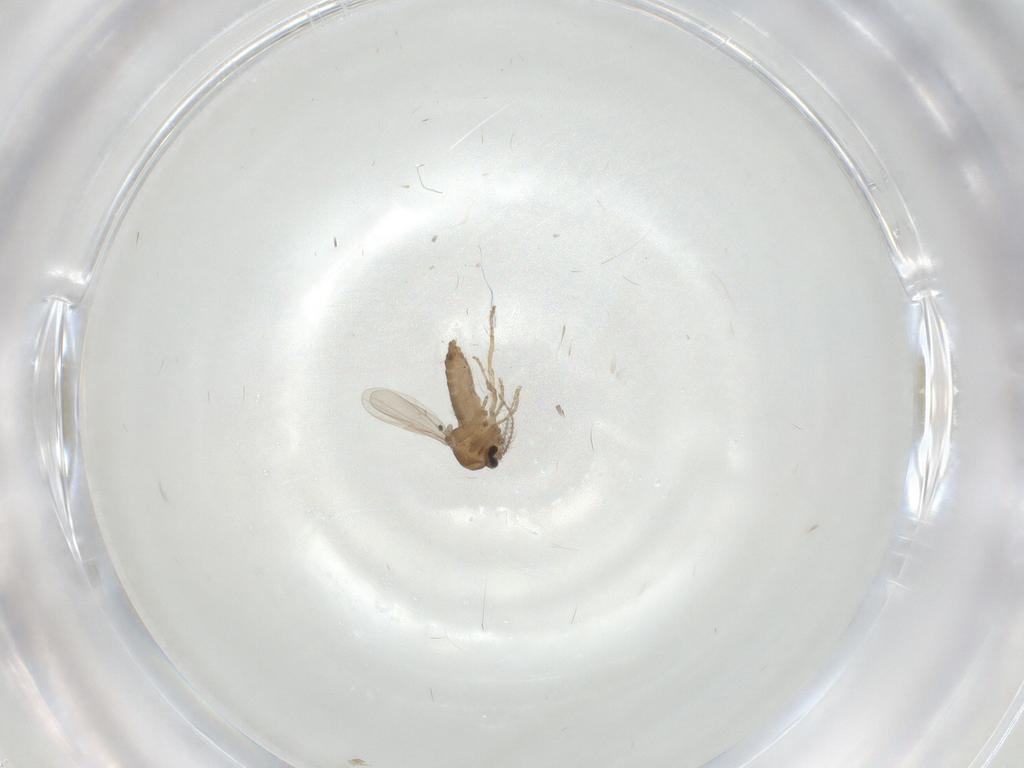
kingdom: Animalia
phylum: Arthropoda
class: Insecta
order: Diptera
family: Ceratopogonidae
